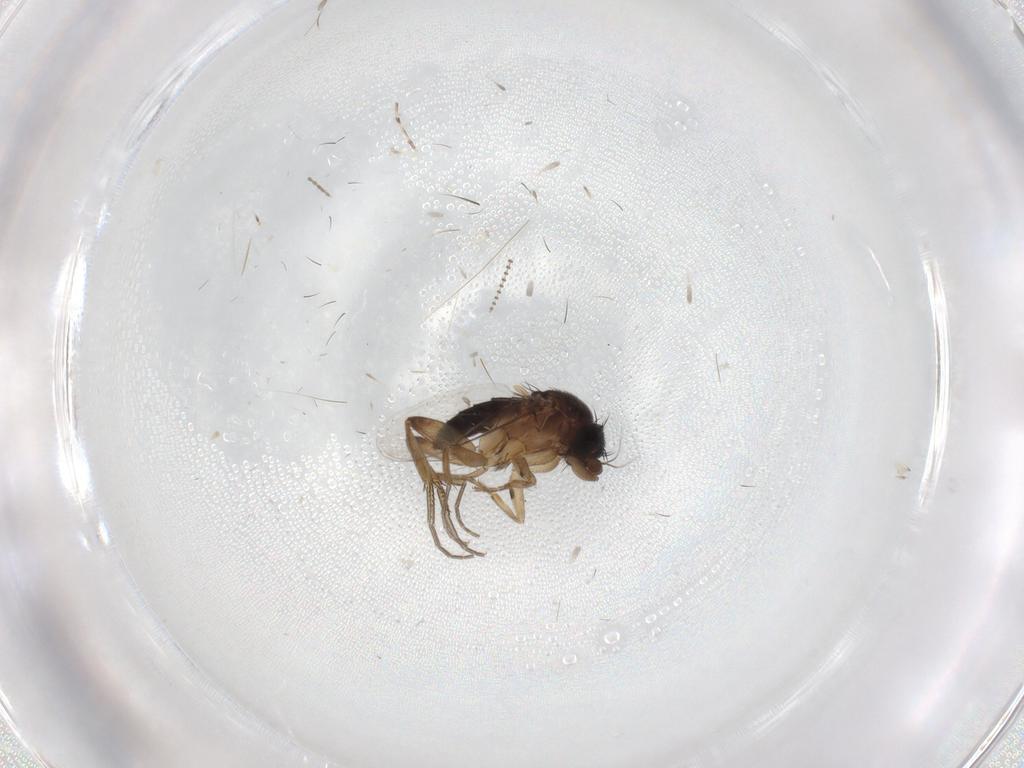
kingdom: Animalia
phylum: Arthropoda
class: Insecta
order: Diptera
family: Phoridae
